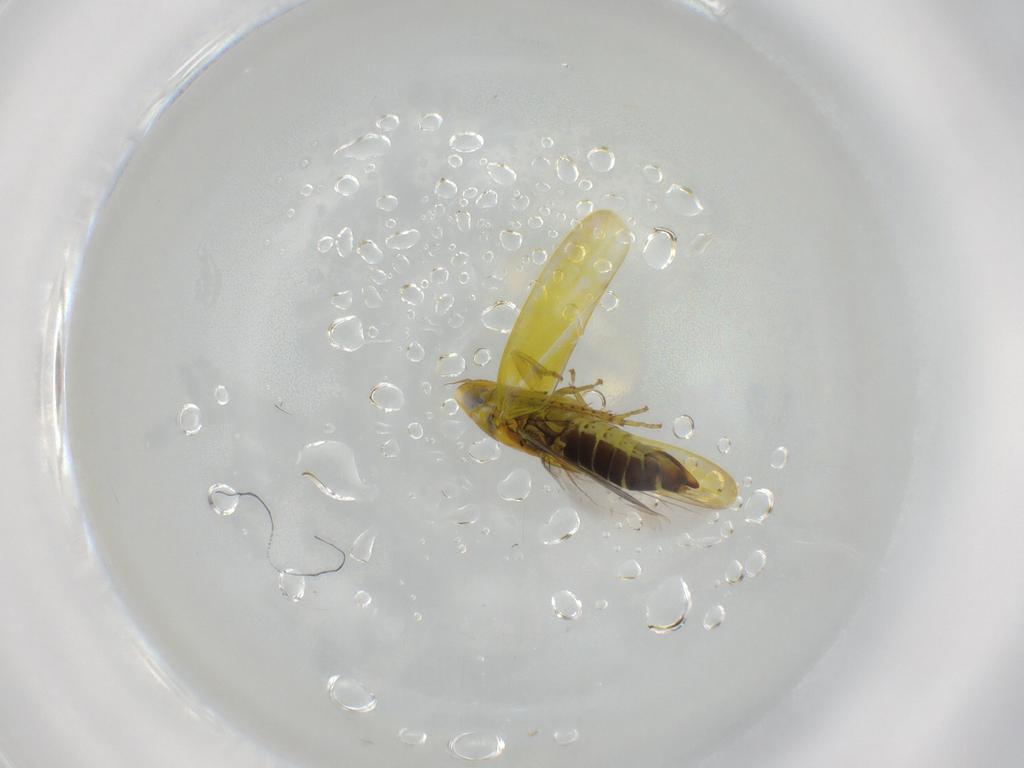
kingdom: Animalia
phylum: Arthropoda
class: Insecta
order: Hemiptera
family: Cicadellidae
